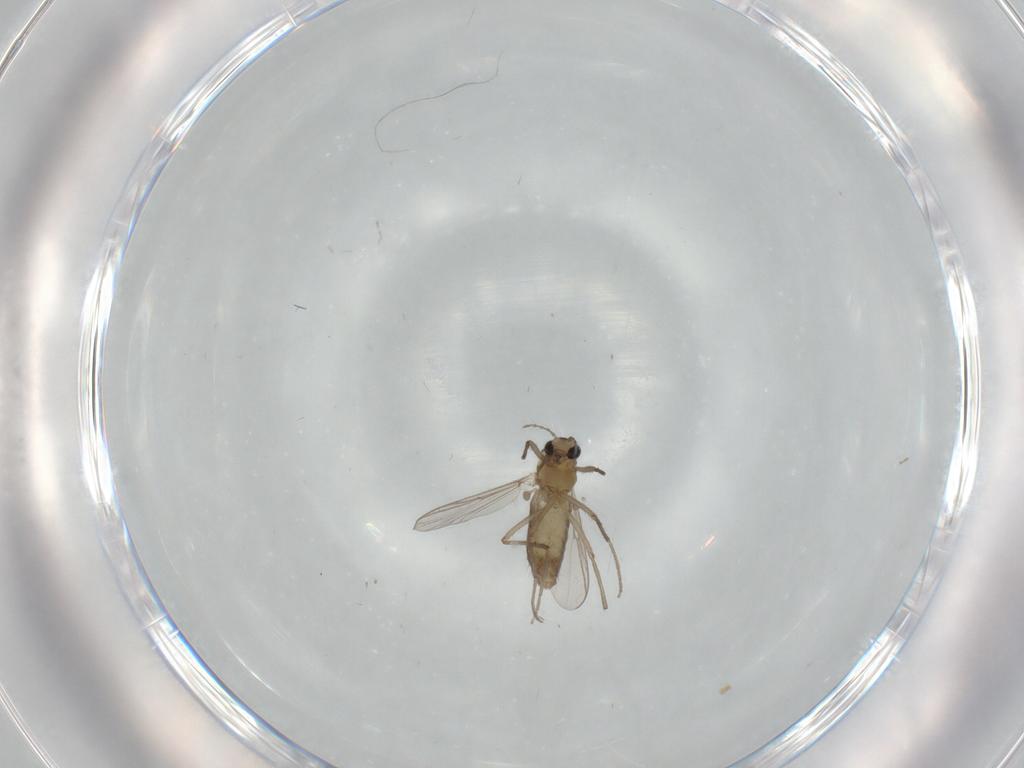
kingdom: Animalia
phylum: Arthropoda
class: Insecta
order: Diptera
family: Chironomidae
